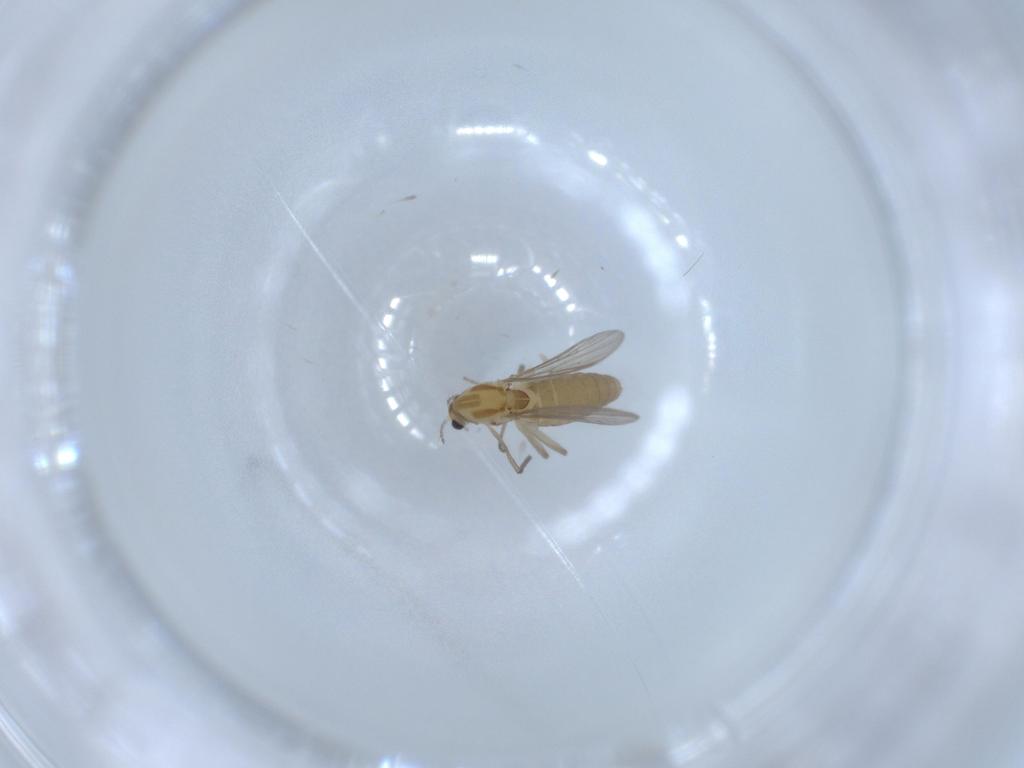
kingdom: Animalia
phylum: Arthropoda
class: Insecta
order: Diptera
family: Chironomidae
